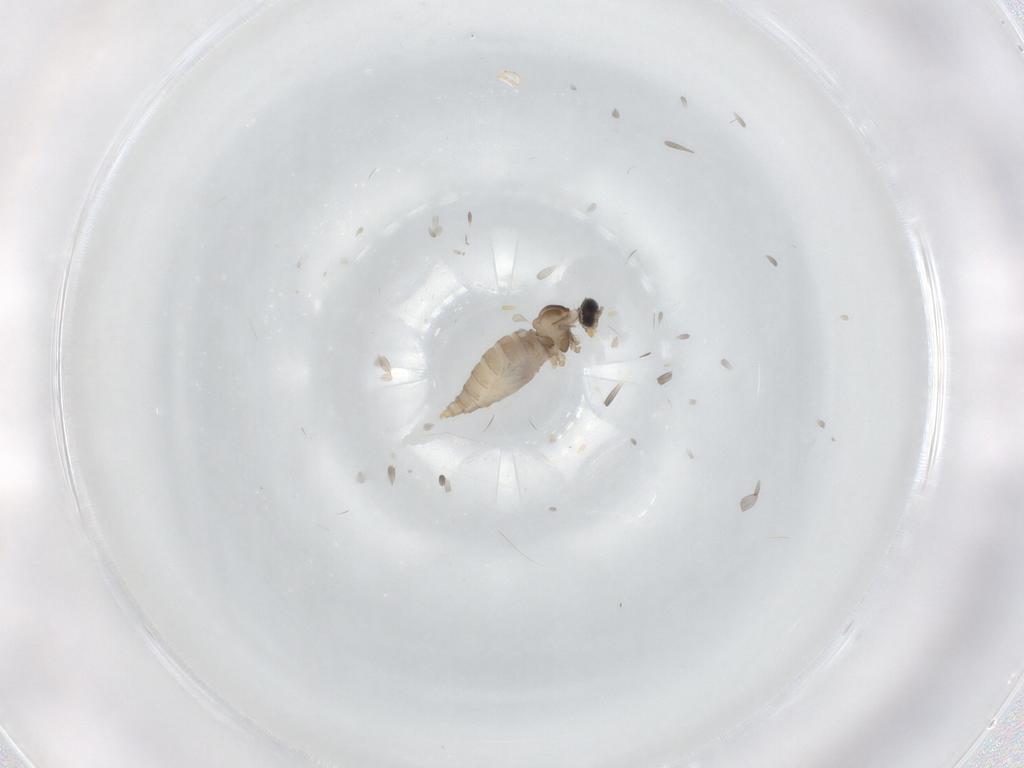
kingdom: Animalia
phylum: Arthropoda
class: Insecta
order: Diptera
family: Cecidomyiidae
